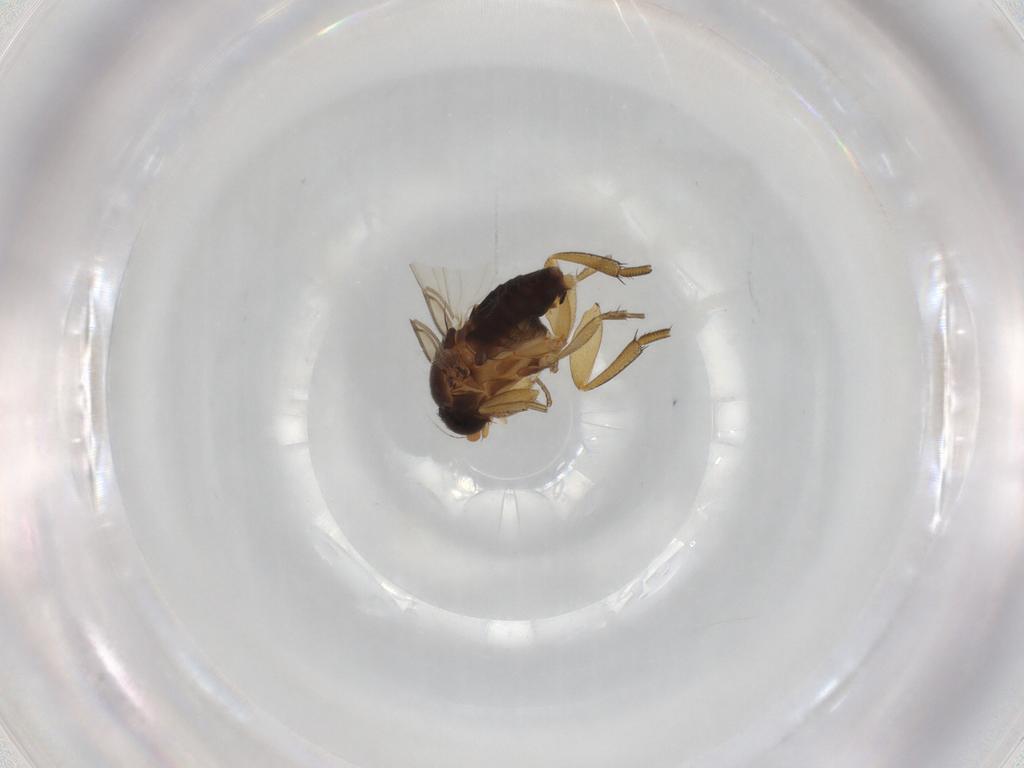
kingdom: Animalia
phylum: Arthropoda
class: Insecta
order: Diptera
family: Phoridae
